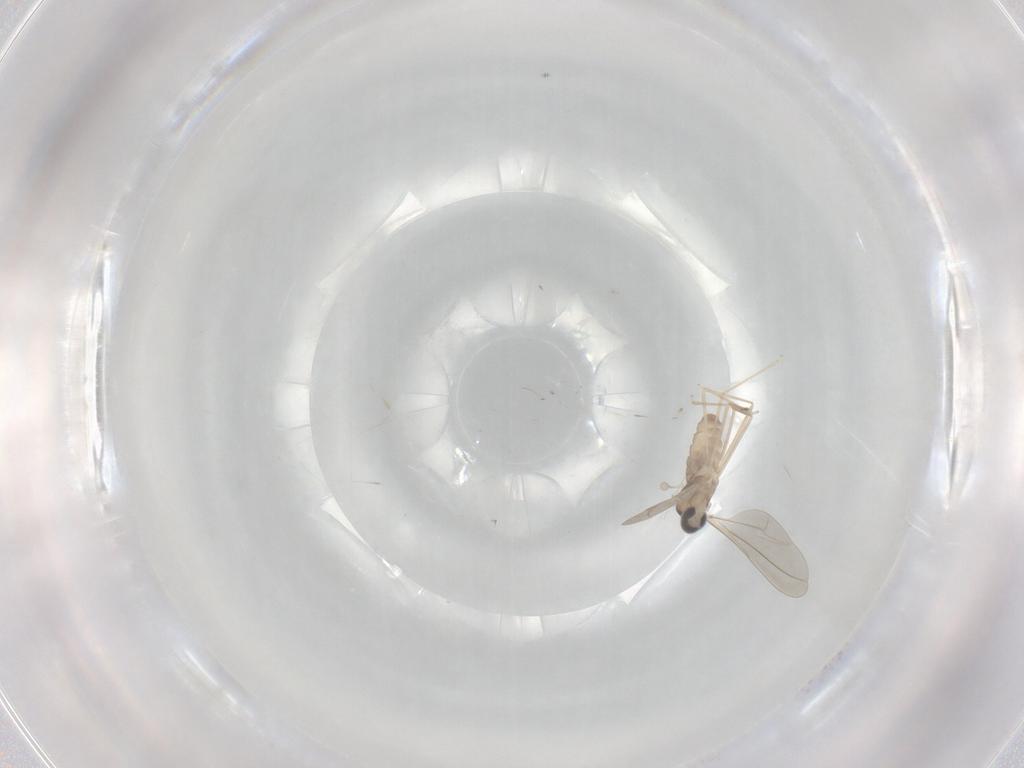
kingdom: Animalia
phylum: Arthropoda
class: Insecta
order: Diptera
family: Cecidomyiidae
